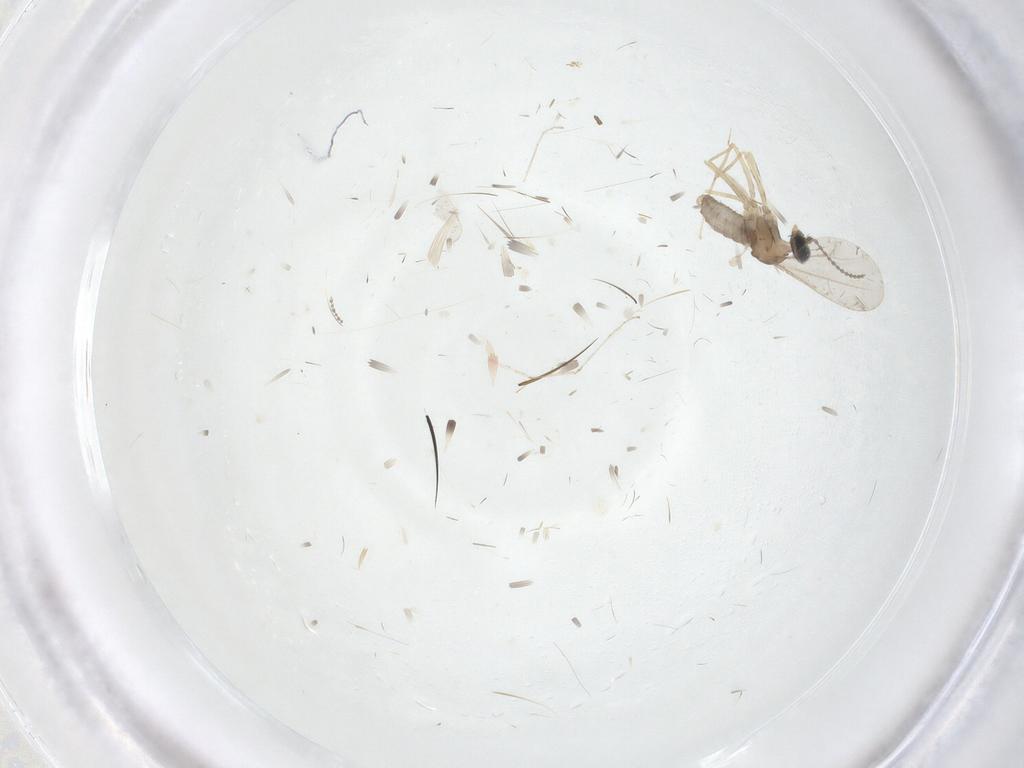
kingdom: Animalia
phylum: Arthropoda
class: Insecta
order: Diptera
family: Cecidomyiidae
